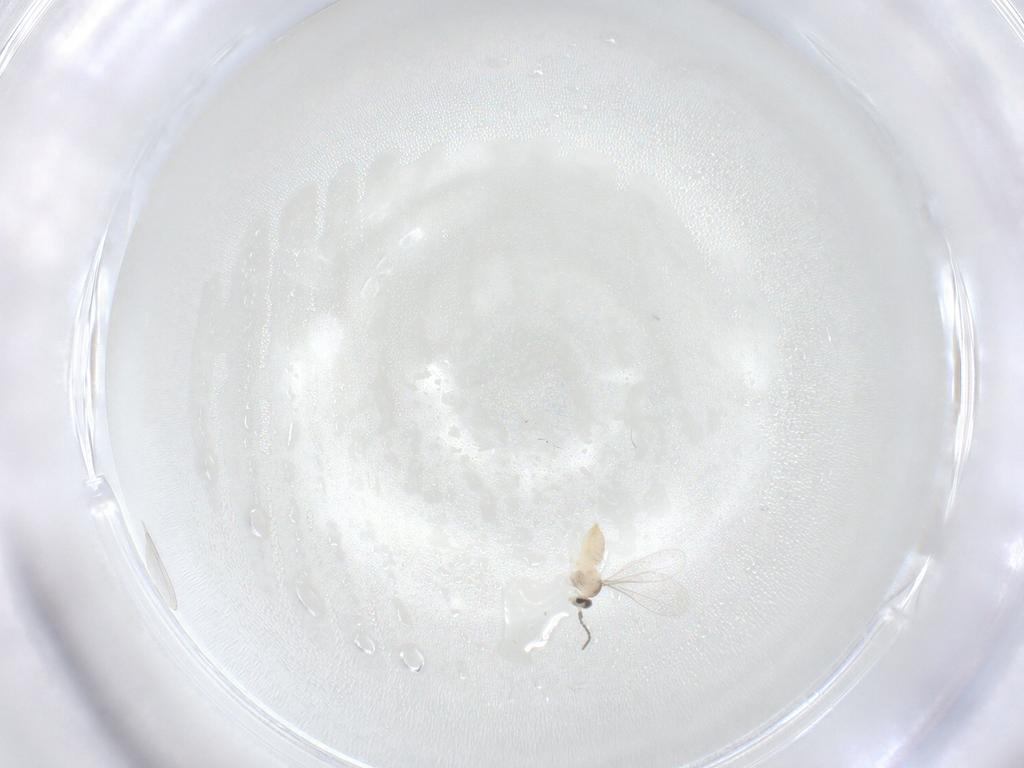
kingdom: Animalia
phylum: Arthropoda
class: Insecta
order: Diptera
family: Cecidomyiidae
